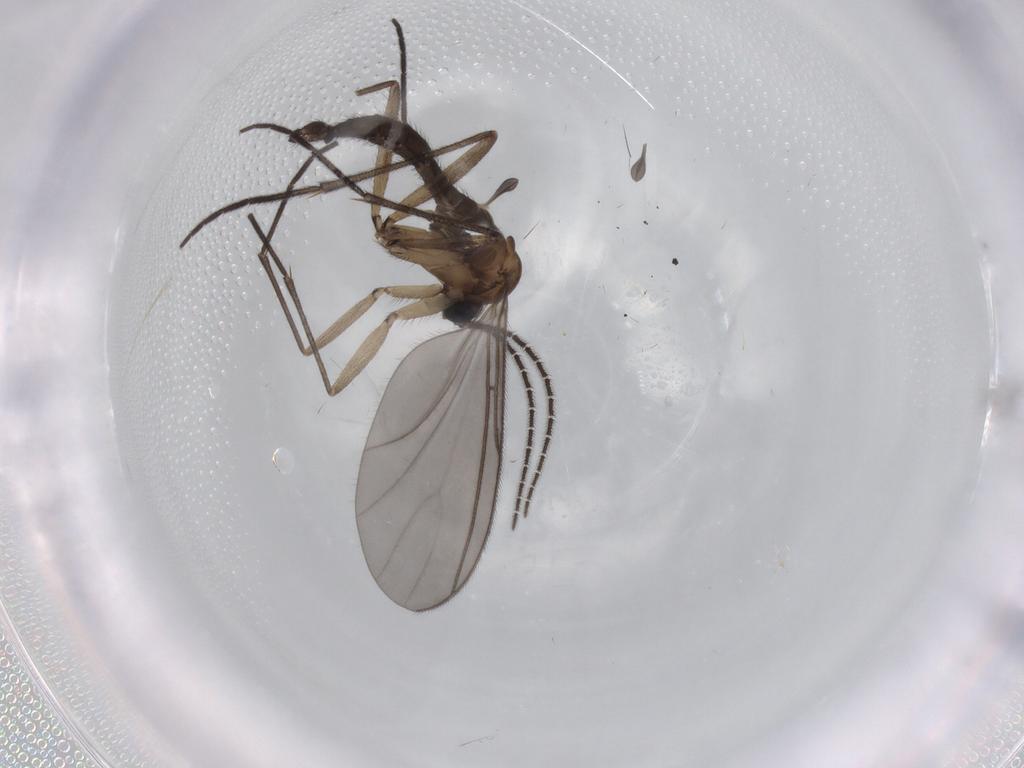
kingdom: Animalia
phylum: Arthropoda
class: Insecta
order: Diptera
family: Sciaridae
